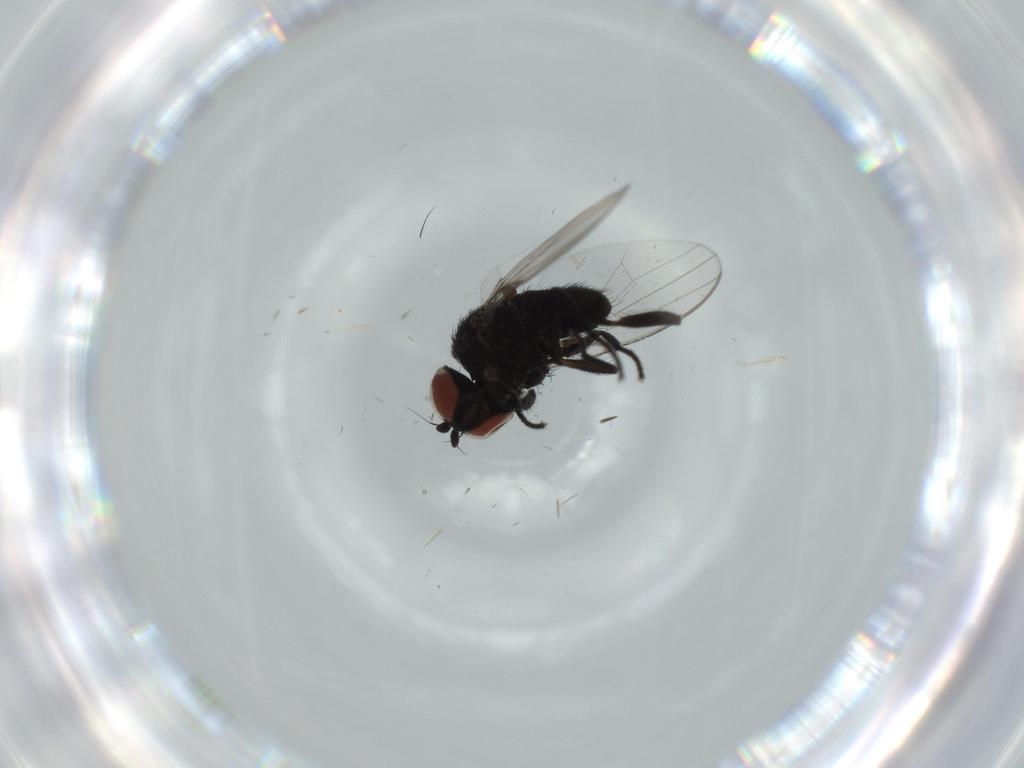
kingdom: Animalia
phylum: Arthropoda
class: Insecta
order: Diptera
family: Milichiidae
